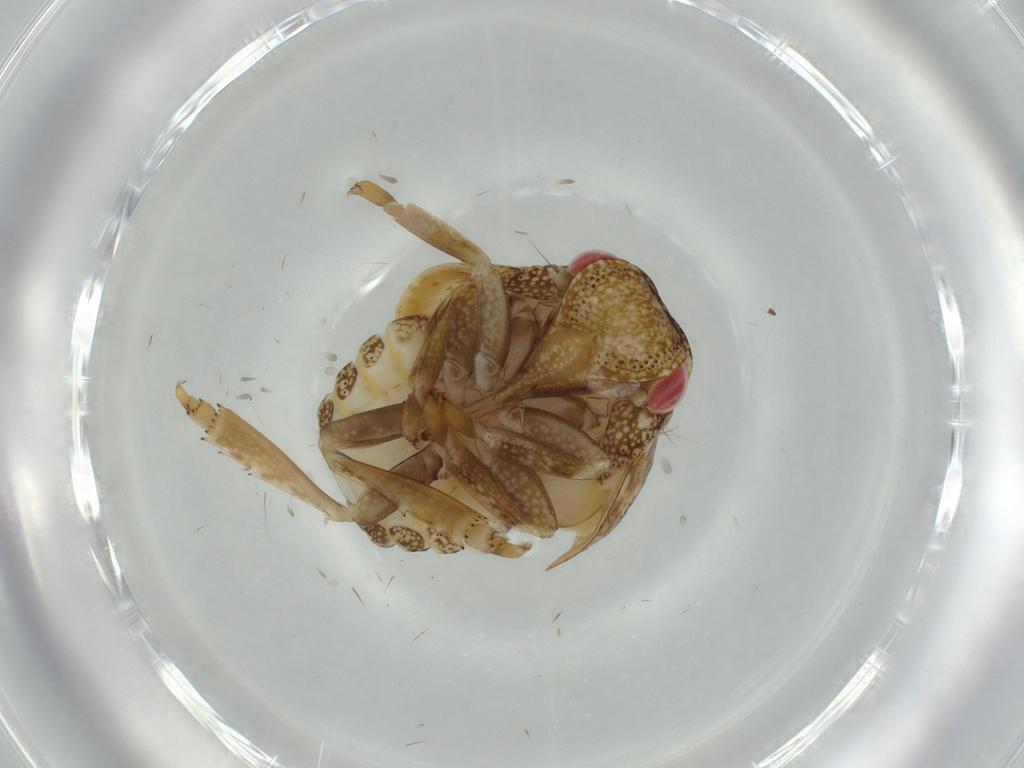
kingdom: Animalia
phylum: Arthropoda
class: Insecta
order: Hemiptera
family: Acanaloniidae
